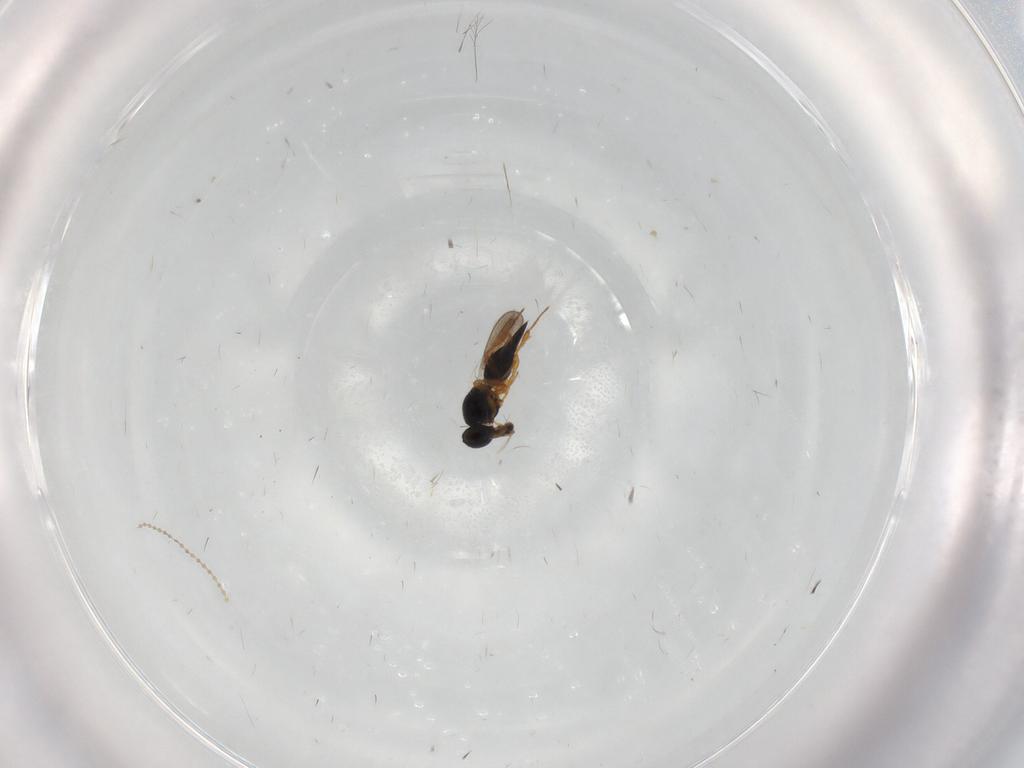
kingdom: Animalia
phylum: Arthropoda
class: Insecta
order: Hymenoptera
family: Platygastridae
